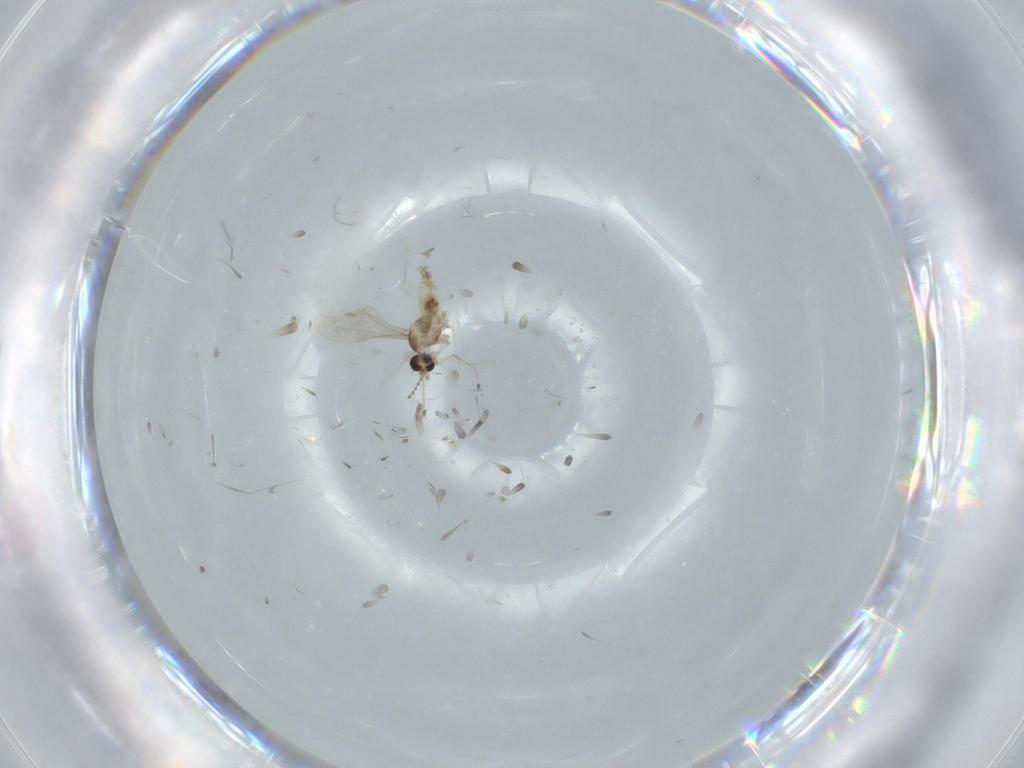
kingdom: Animalia
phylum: Arthropoda
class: Insecta
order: Diptera
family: Cecidomyiidae
